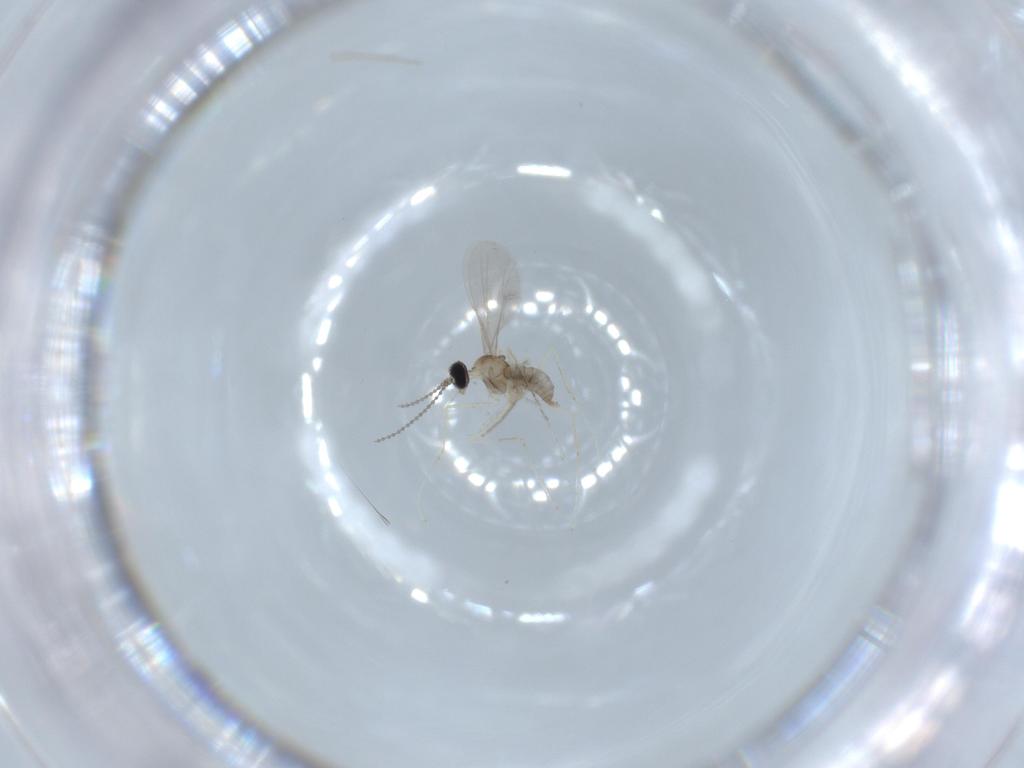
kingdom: Animalia
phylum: Arthropoda
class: Insecta
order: Diptera
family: Cecidomyiidae
